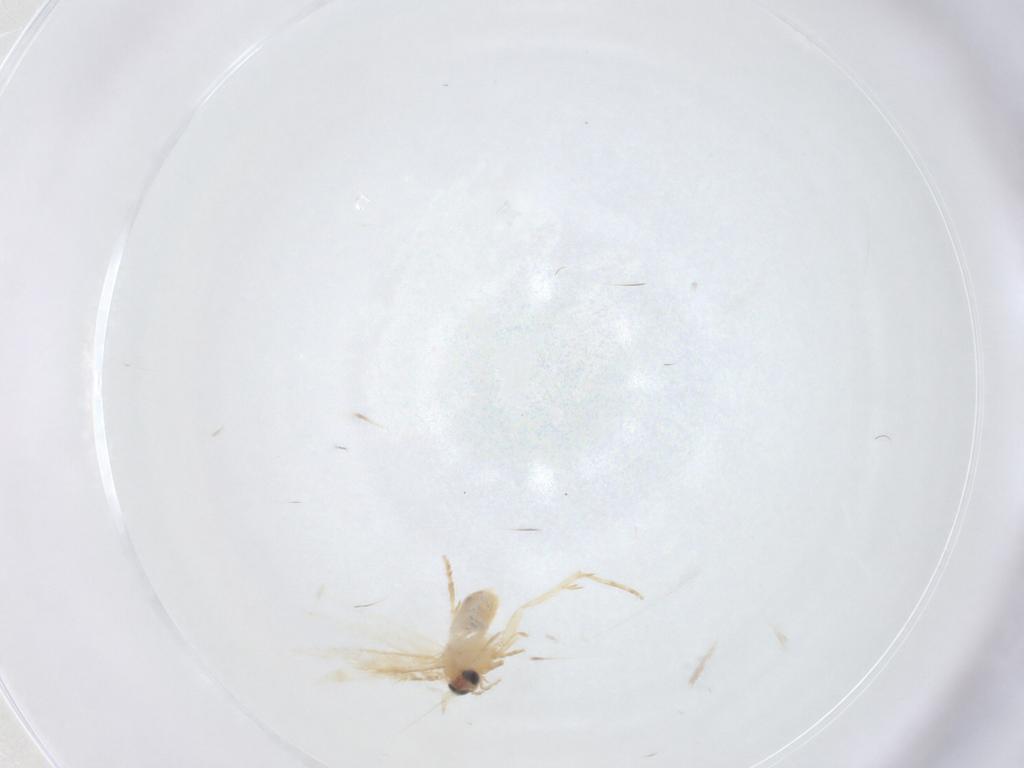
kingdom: Animalia
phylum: Arthropoda
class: Insecta
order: Lepidoptera
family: Nepticulidae
